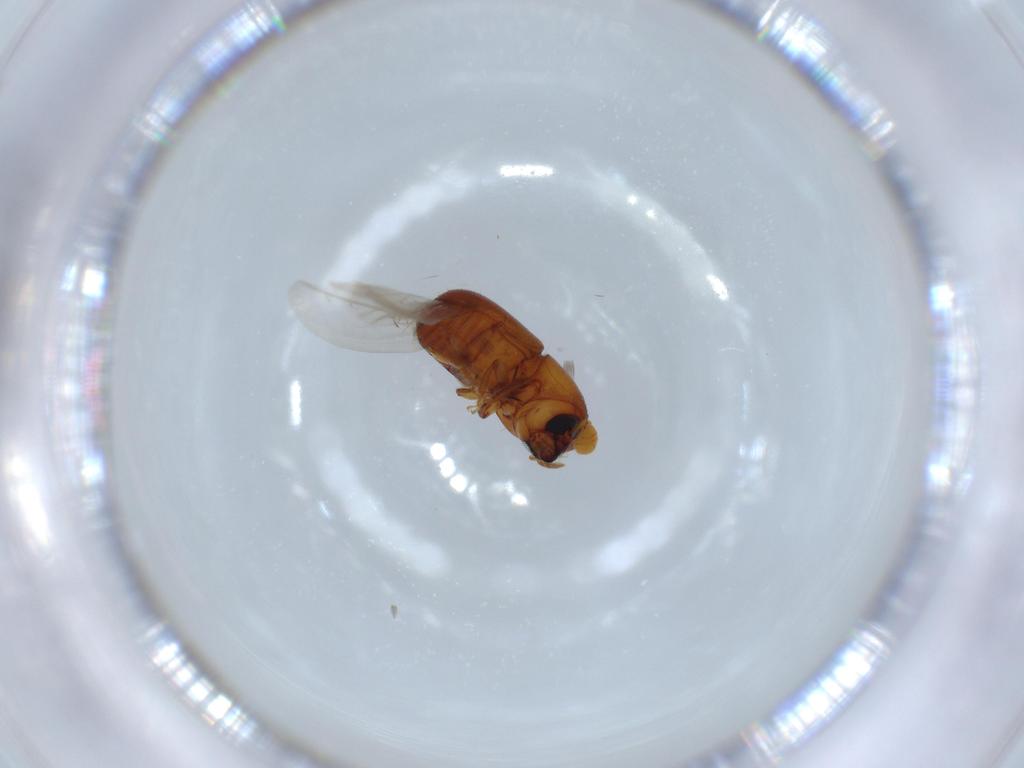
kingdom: Animalia
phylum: Arthropoda
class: Insecta
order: Coleoptera
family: Curculionidae
